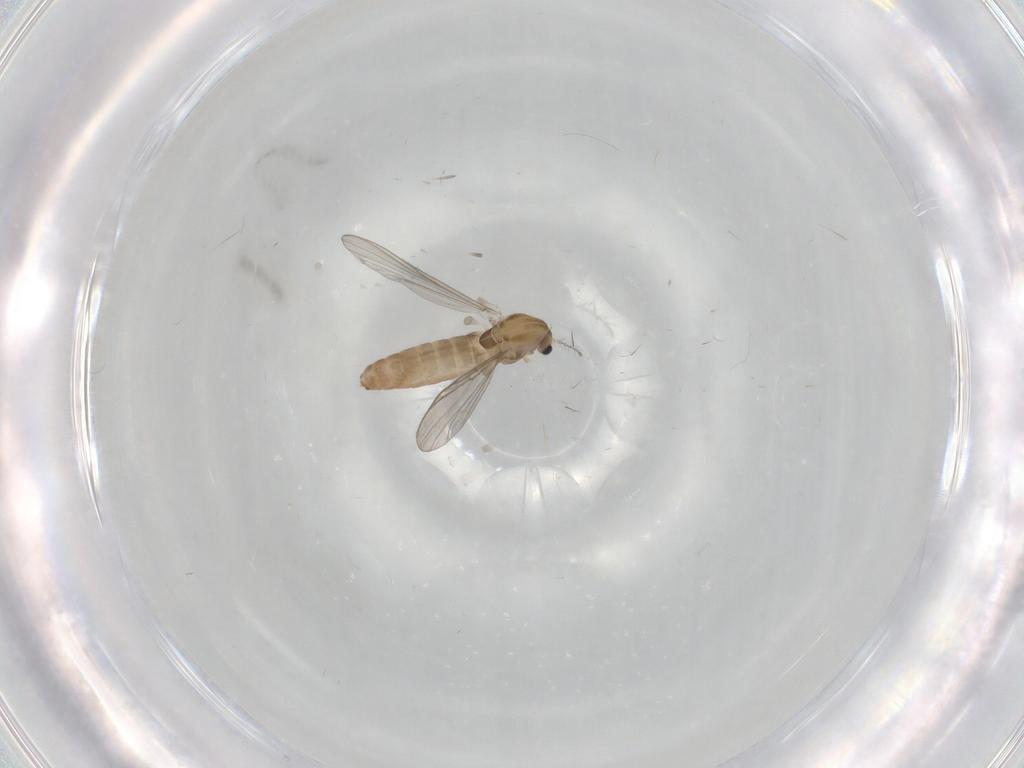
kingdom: Animalia
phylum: Arthropoda
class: Insecta
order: Diptera
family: Chironomidae
